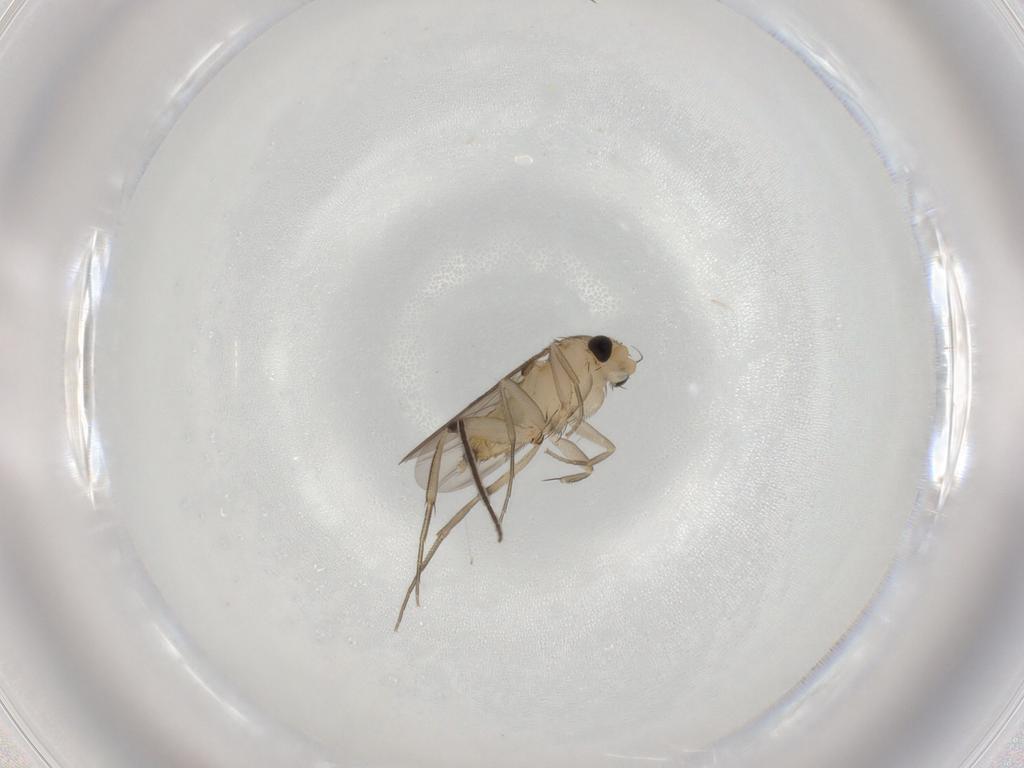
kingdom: Animalia
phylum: Arthropoda
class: Insecta
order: Diptera
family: Phoridae
